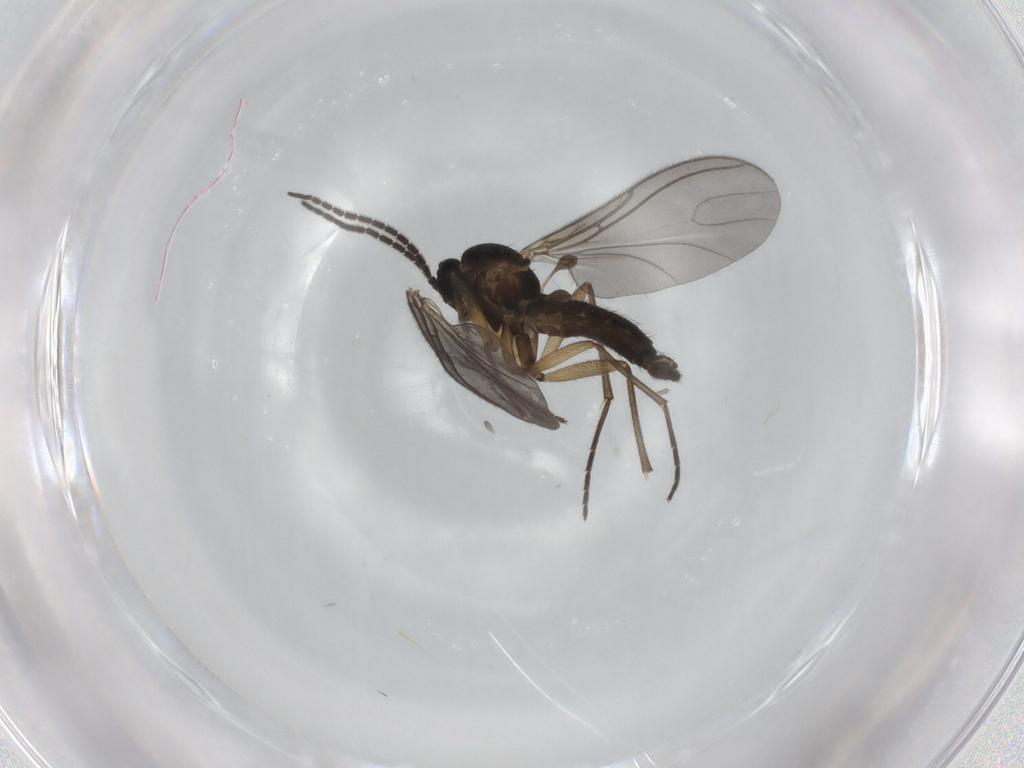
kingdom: Animalia
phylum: Arthropoda
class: Insecta
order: Diptera
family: Sciaridae
